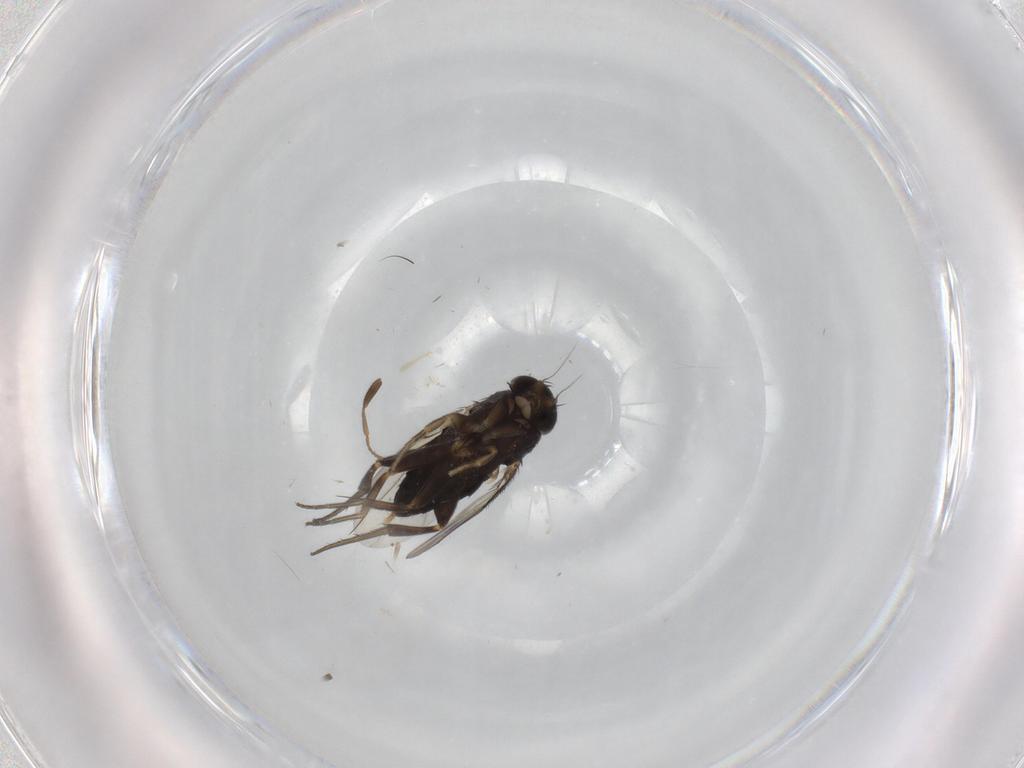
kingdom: Animalia
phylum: Arthropoda
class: Insecta
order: Diptera
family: Phoridae
